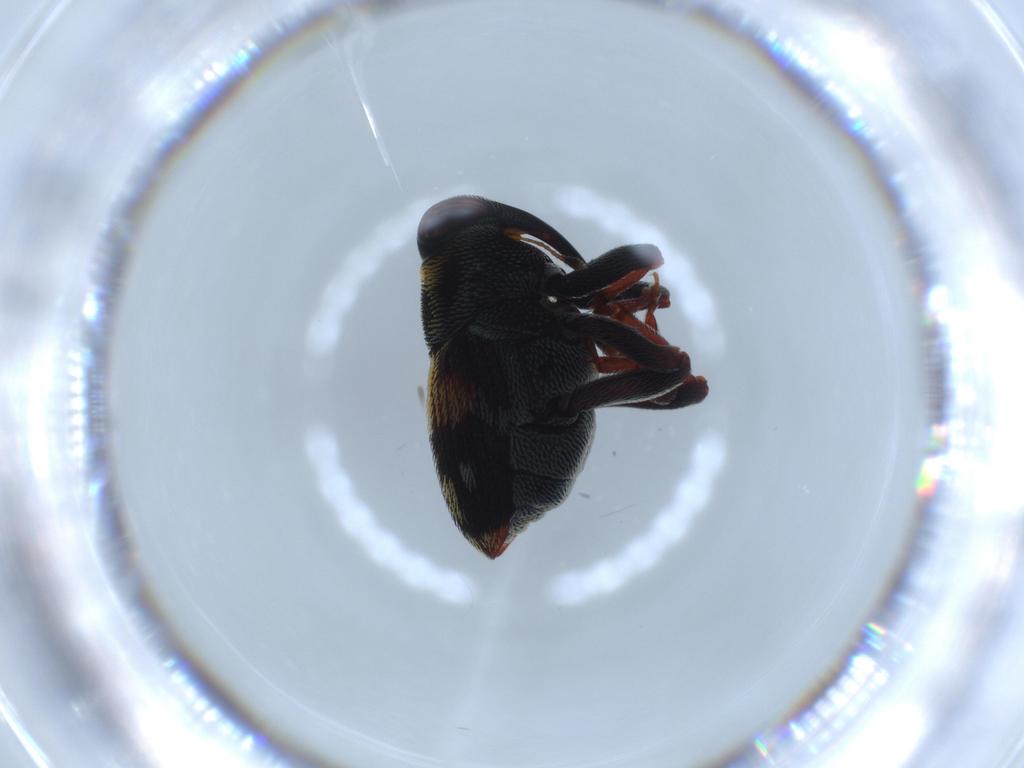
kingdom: Animalia
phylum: Arthropoda
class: Insecta
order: Coleoptera
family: Curculionidae
